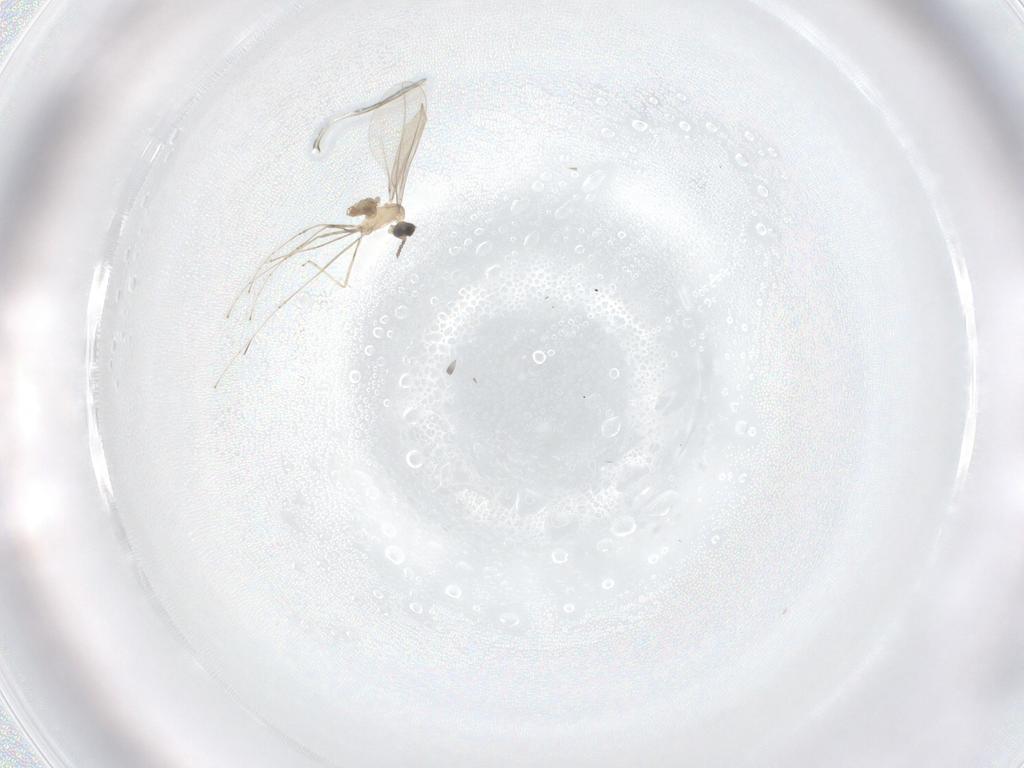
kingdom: Animalia
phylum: Arthropoda
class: Insecta
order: Diptera
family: Cecidomyiidae
